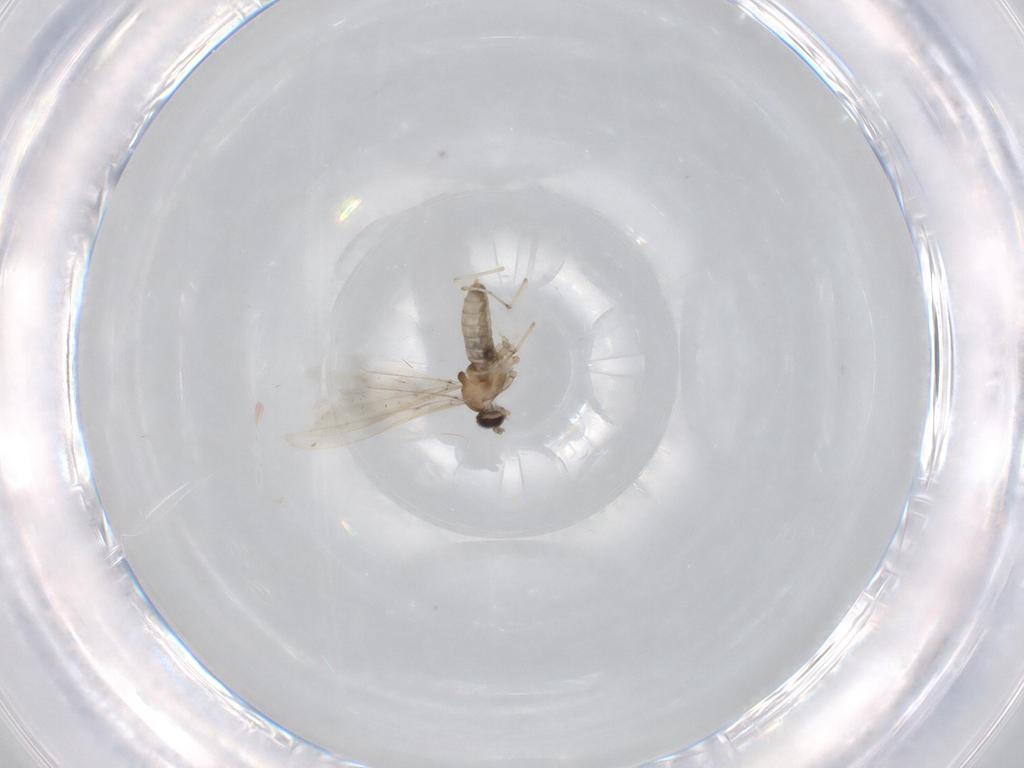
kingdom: Animalia
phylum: Arthropoda
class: Insecta
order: Diptera
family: Cecidomyiidae
